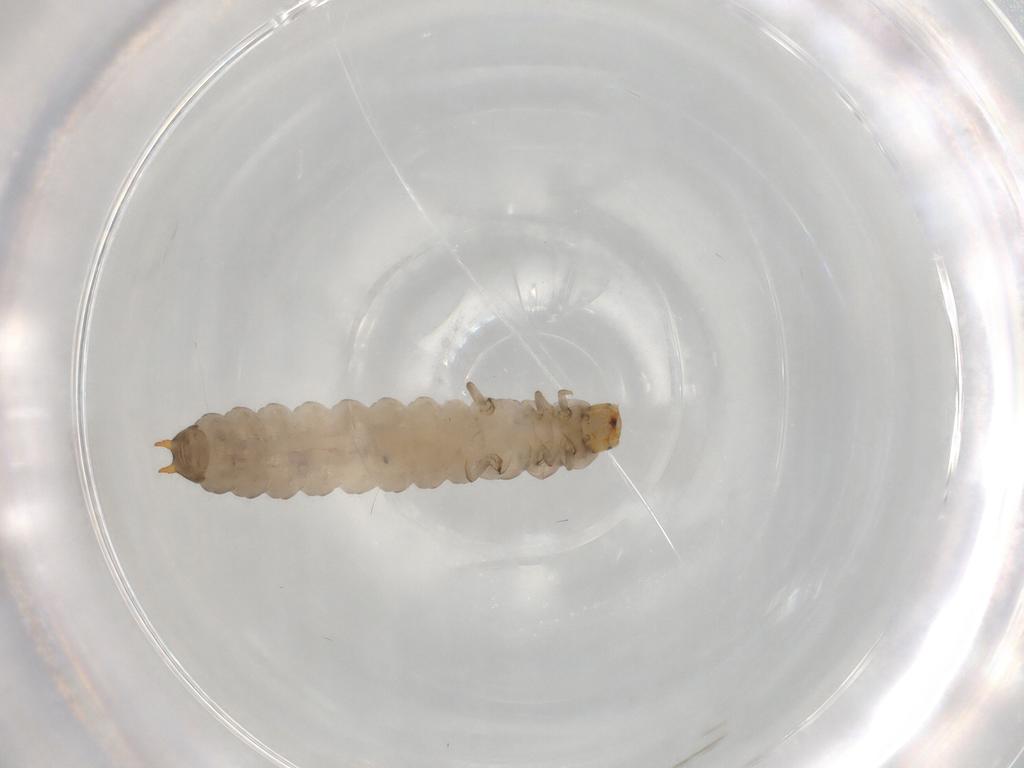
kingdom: Animalia
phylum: Arthropoda
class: Insecta
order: Coleoptera
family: Melyridae
